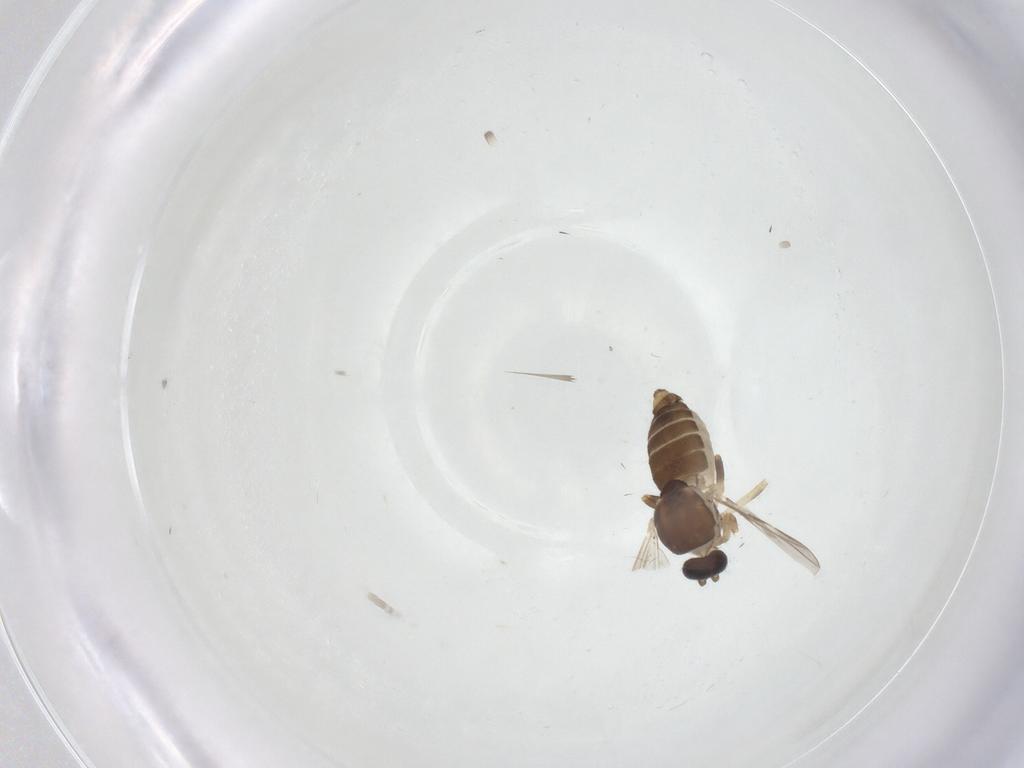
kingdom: Animalia
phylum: Arthropoda
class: Insecta
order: Diptera
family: Ceratopogonidae
